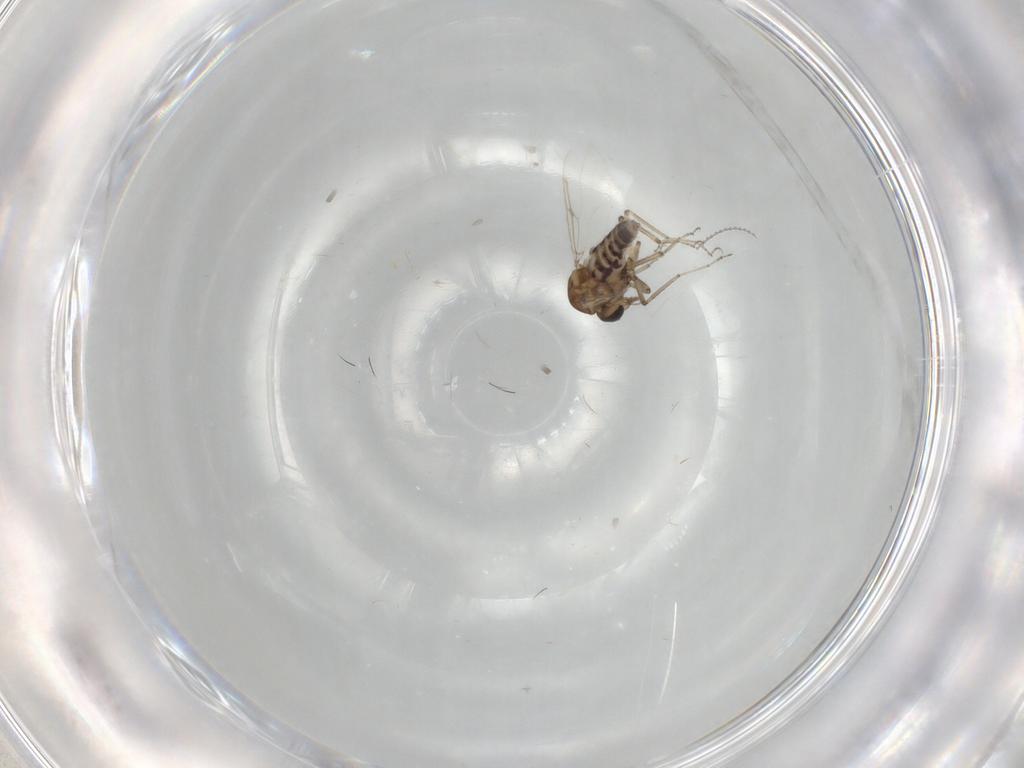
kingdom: Animalia
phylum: Arthropoda
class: Insecta
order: Diptera
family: Ceratopogonidae
